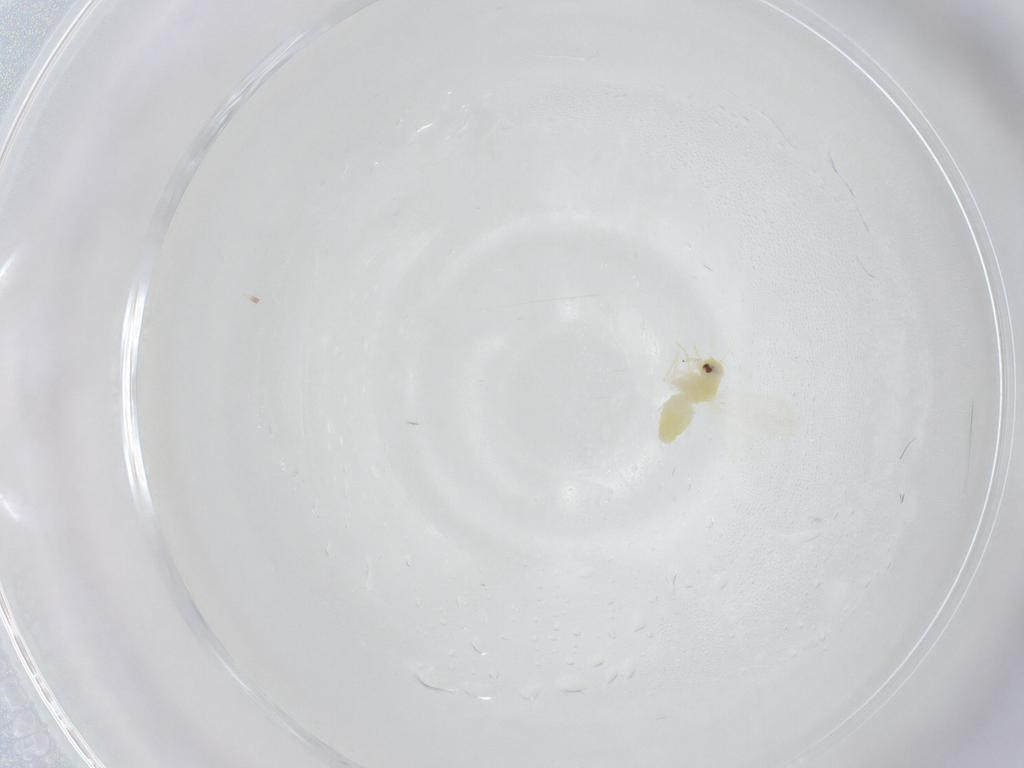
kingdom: Animalia
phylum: Arthropoda
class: Insecta
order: Hemiptera
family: Aleyrodidae
